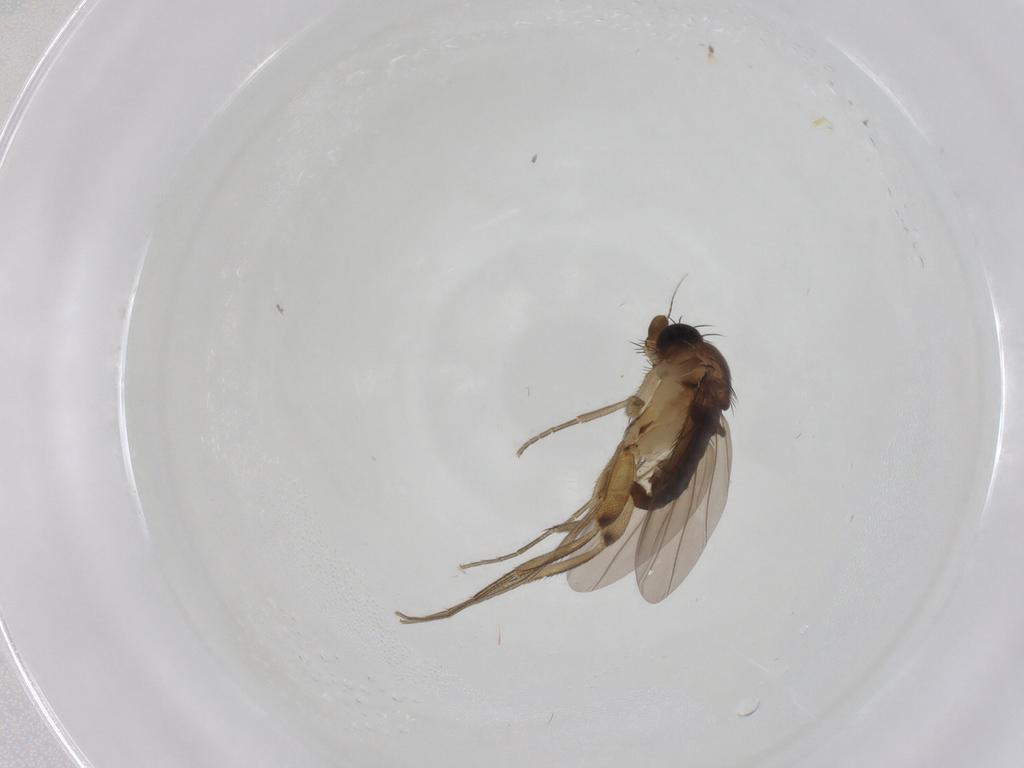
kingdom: Animalia
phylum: Arthropoda
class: Insecta
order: Diptera
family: Phoridae
